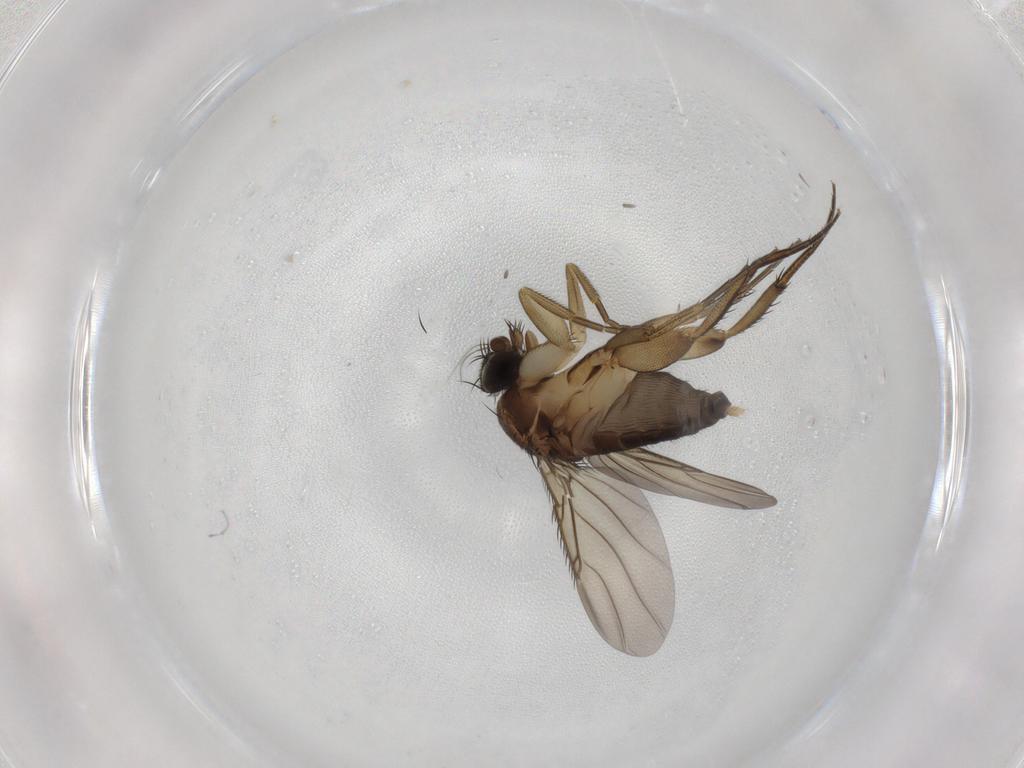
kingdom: Animalia
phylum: Arthropoda
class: Insecta
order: Diptera
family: Phoridae
